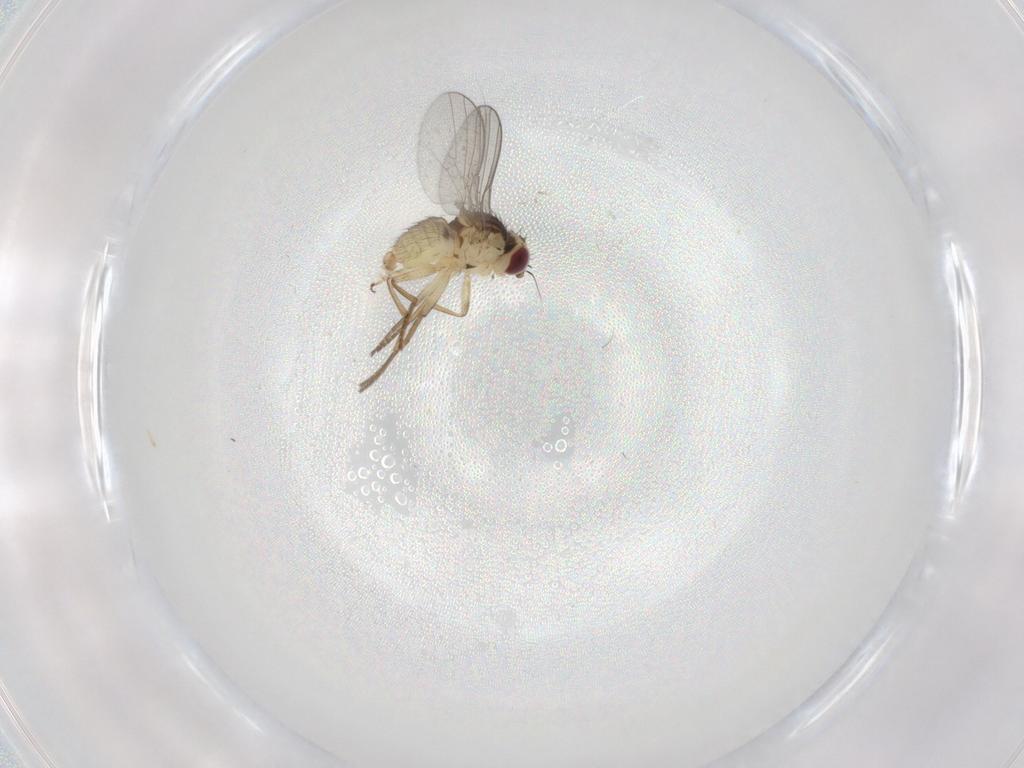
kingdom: Animalia
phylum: Arthropoda
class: Insecta
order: Diptera
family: Agromyzidae
